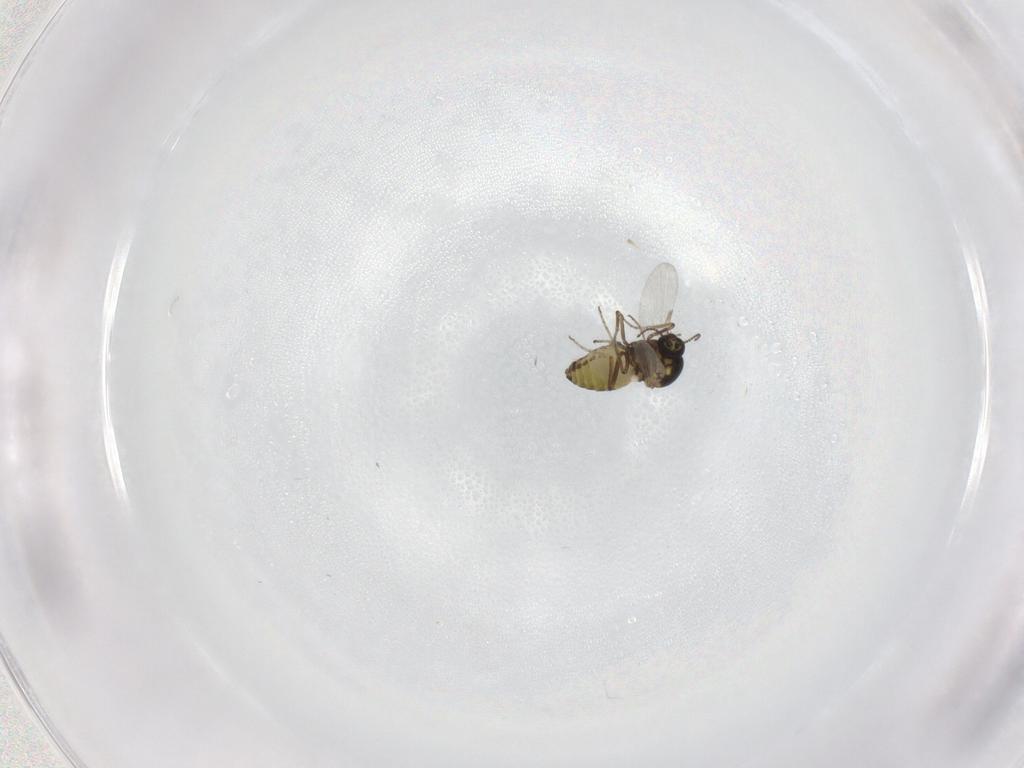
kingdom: Animalia
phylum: Arthropoda
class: Insecta
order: Diptera
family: Ceratopogonidae
